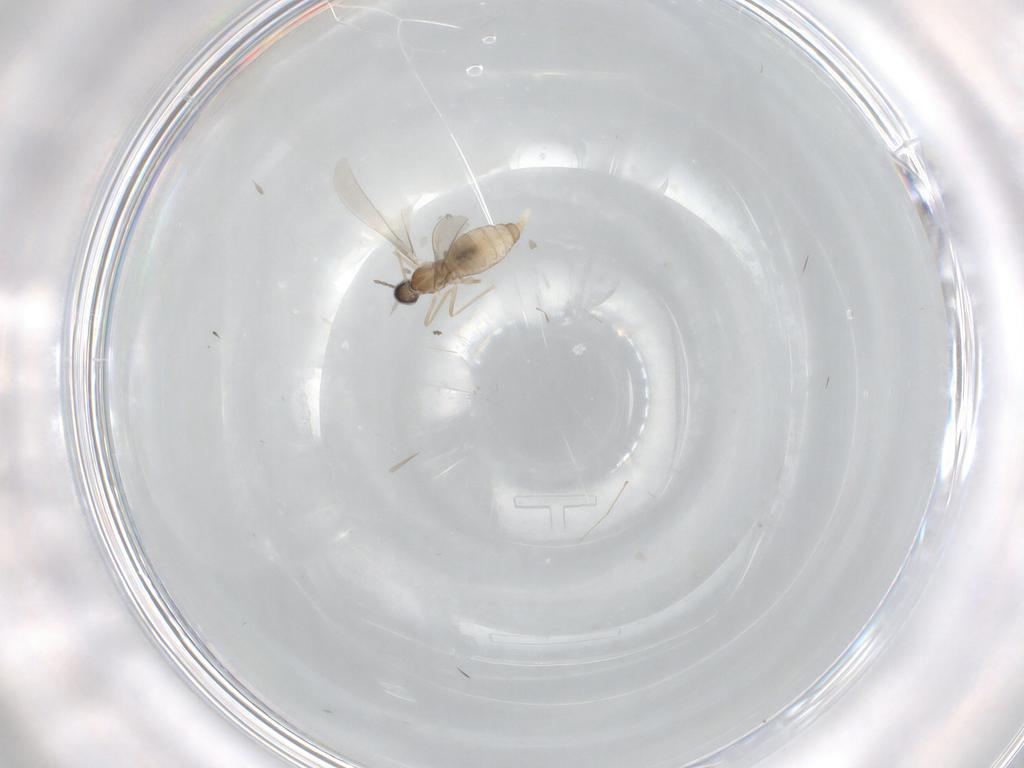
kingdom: Animalia
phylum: Arthropoda
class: Insecta
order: Diptera
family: Cecidomyiidae
